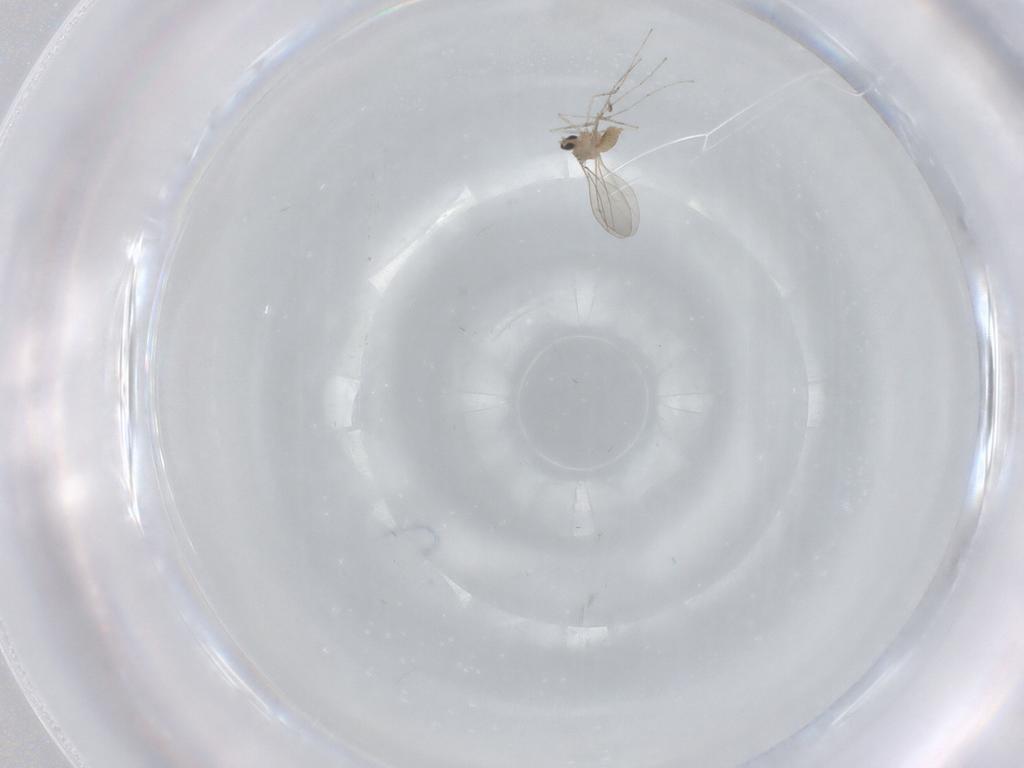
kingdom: Animalia
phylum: Arthropoda
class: Insecta
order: Diptera
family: Cecidomyiidae
